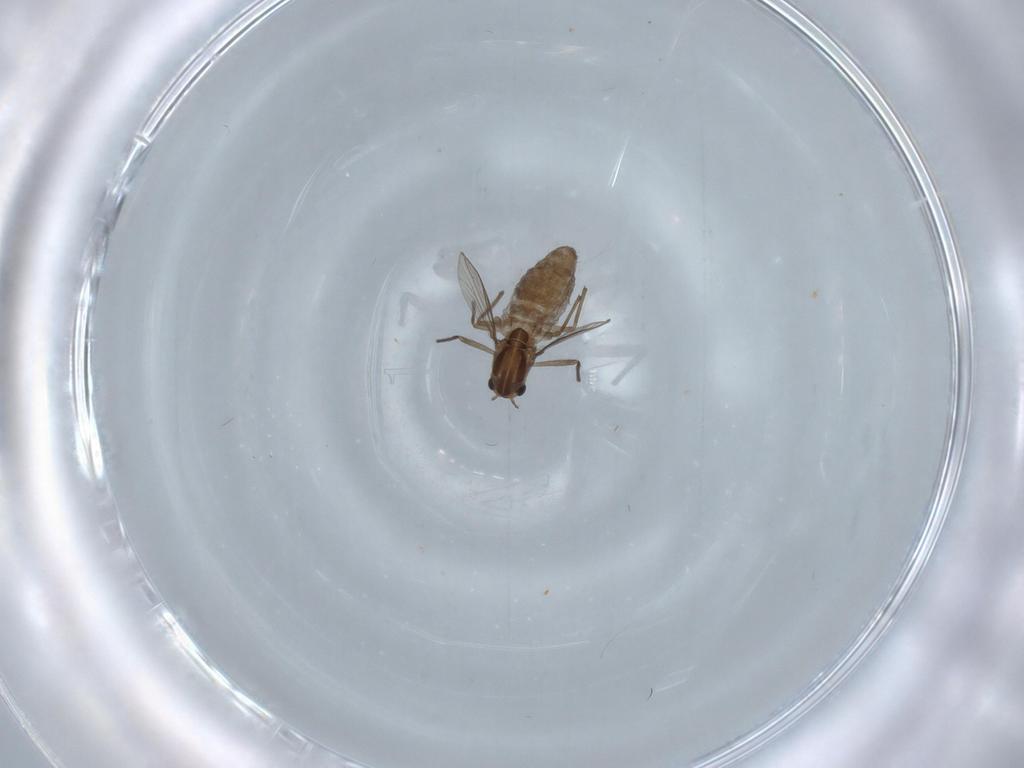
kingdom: Animalia
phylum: Arthropoda
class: Insecta
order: Diptera
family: Chironomidae
